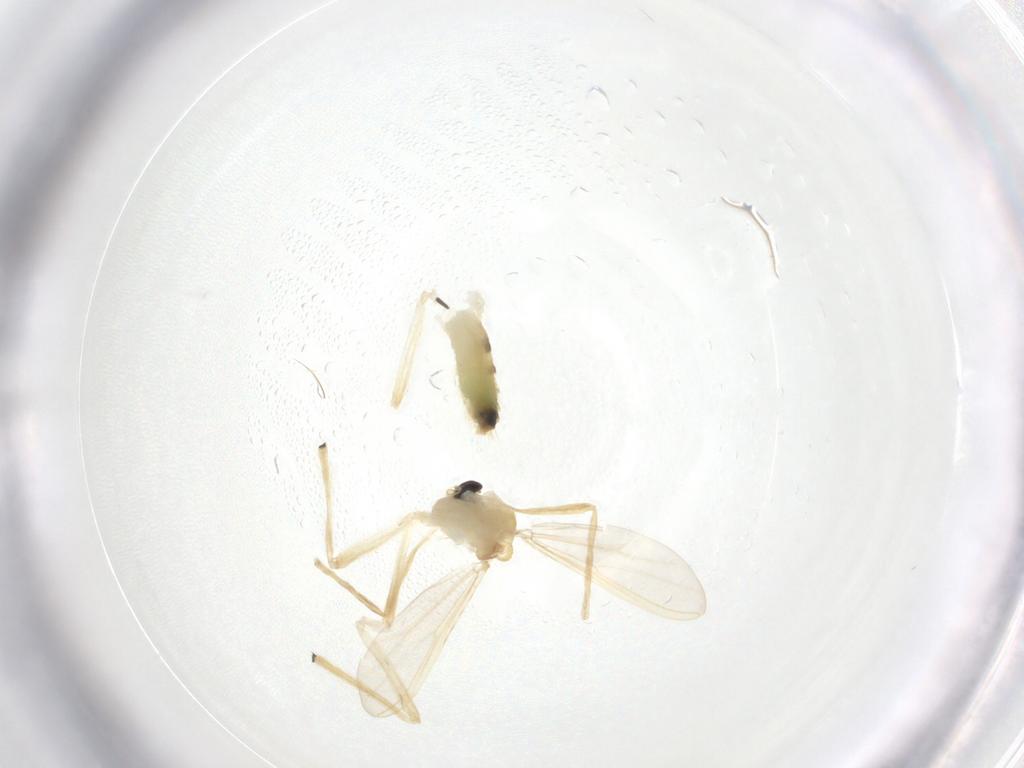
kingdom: Animalia
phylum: Arthropoda
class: Insecta
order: Diptera
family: Chironomidae
